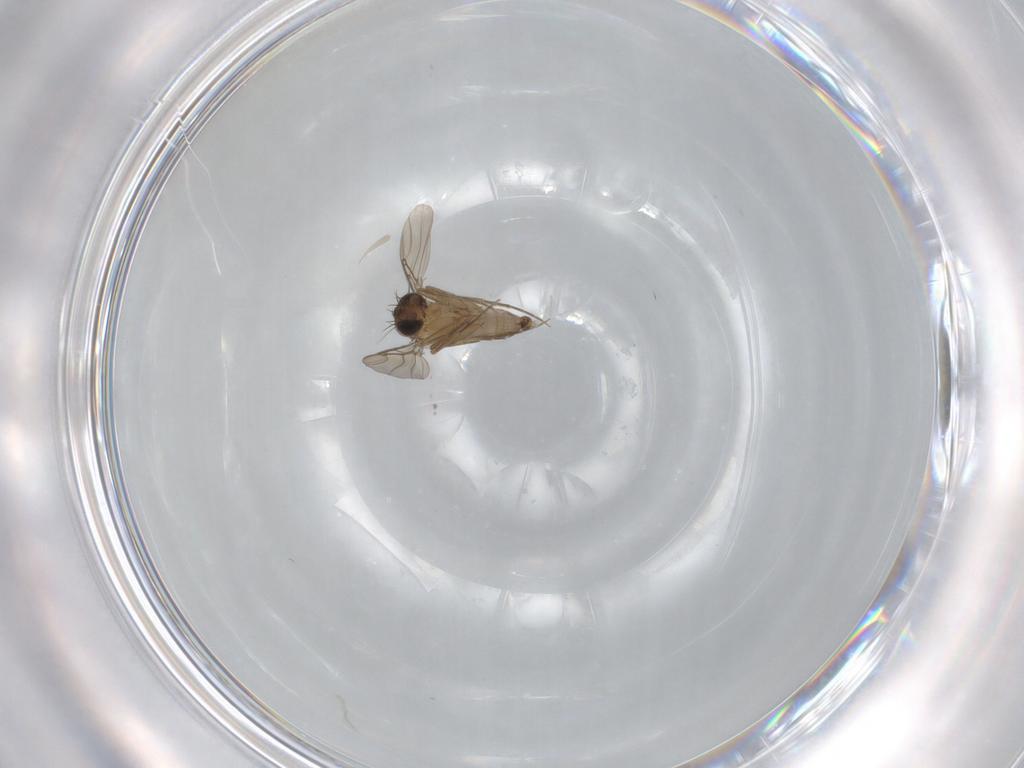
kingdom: Animalia
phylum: Arthropoda
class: Insecta
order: Diptera
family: Phoridae
